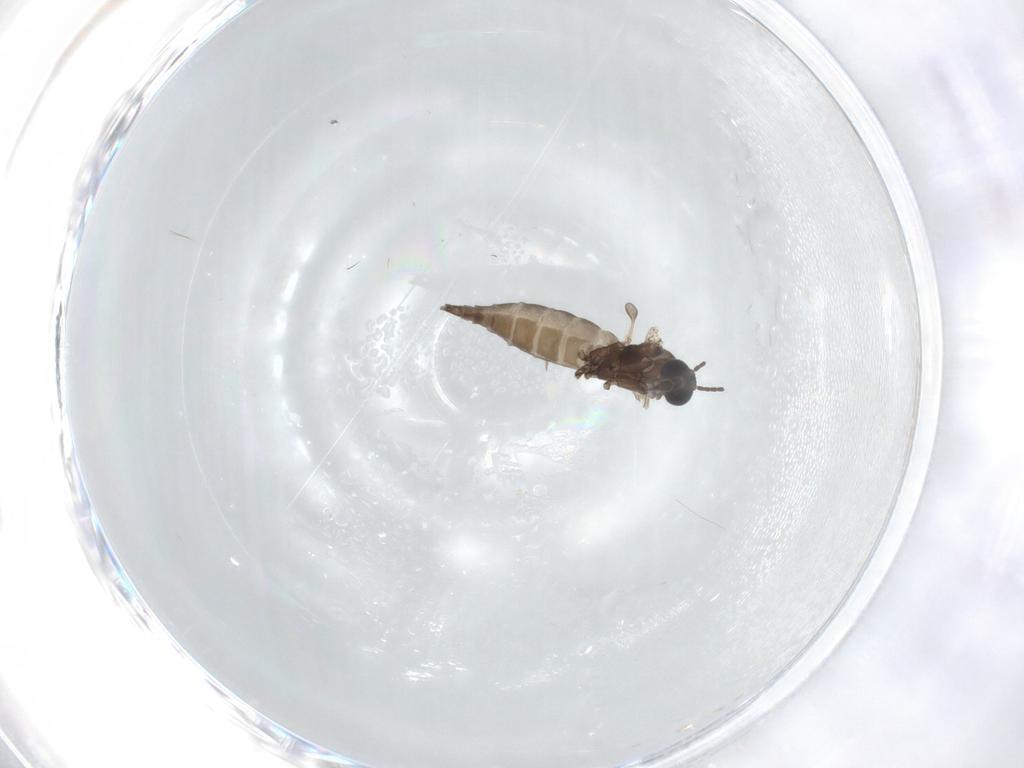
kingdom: Animalia
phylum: Arthropoda
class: Insecta
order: Diptera
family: Sciaridae
